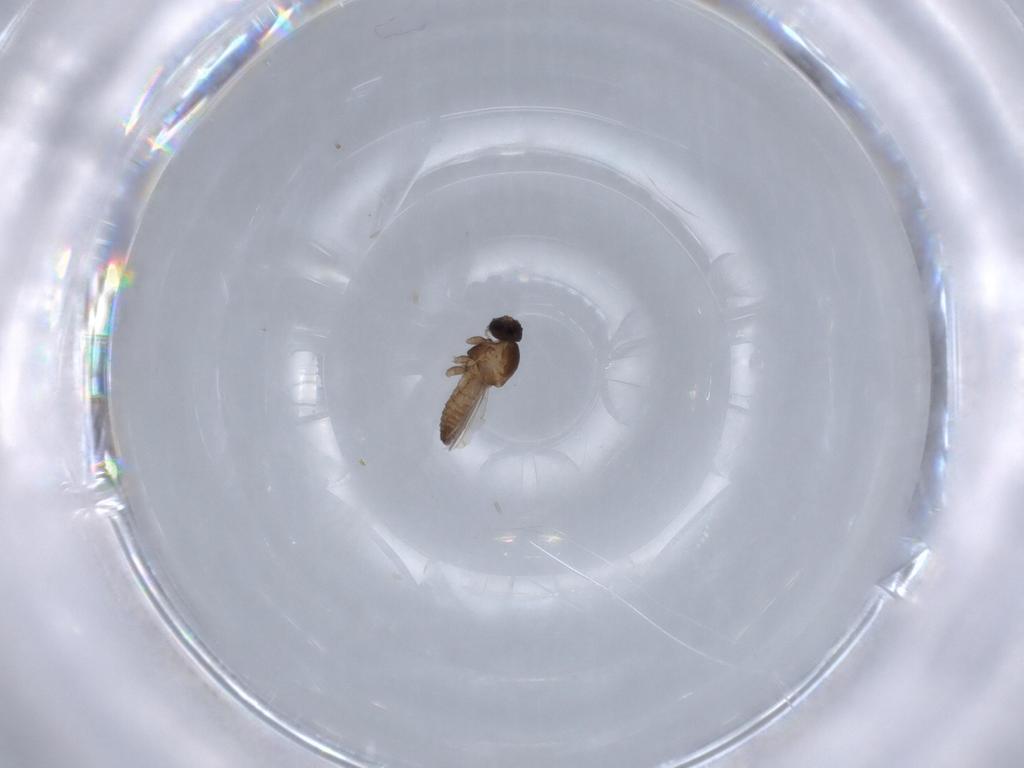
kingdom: Animalia
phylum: Arthropoda
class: Insecta
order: Diptera
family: Cecidomyiidae
